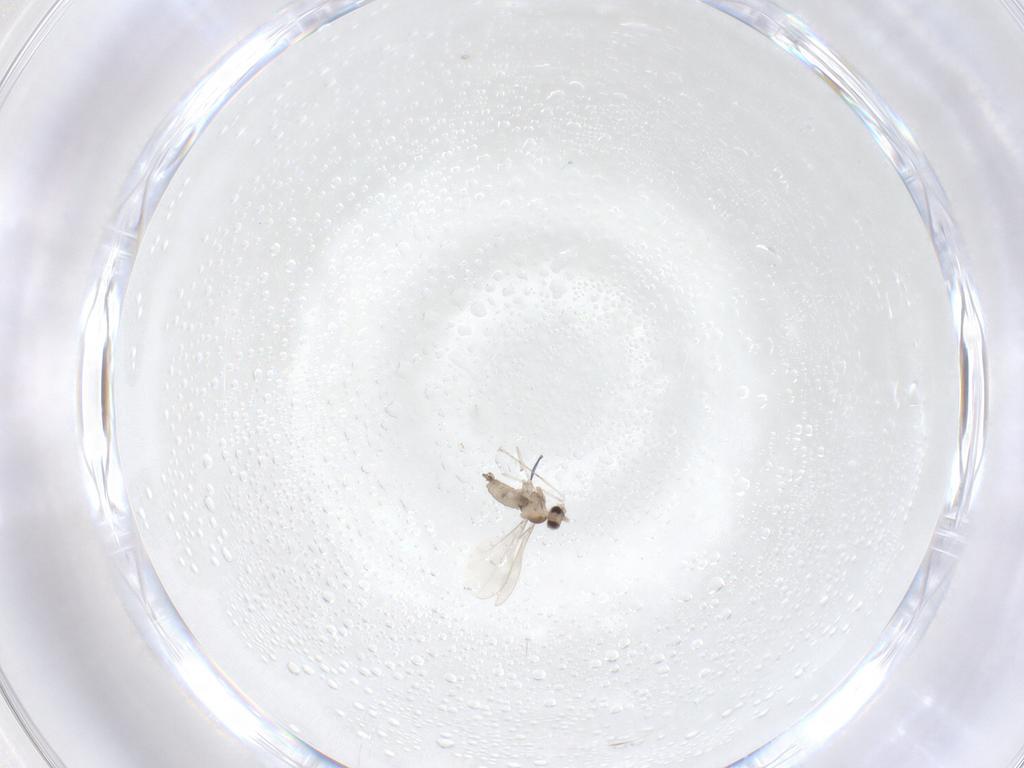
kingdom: Animalia
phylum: Arthropoda
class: Insecta
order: Diptera
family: Cecidomyiidae
